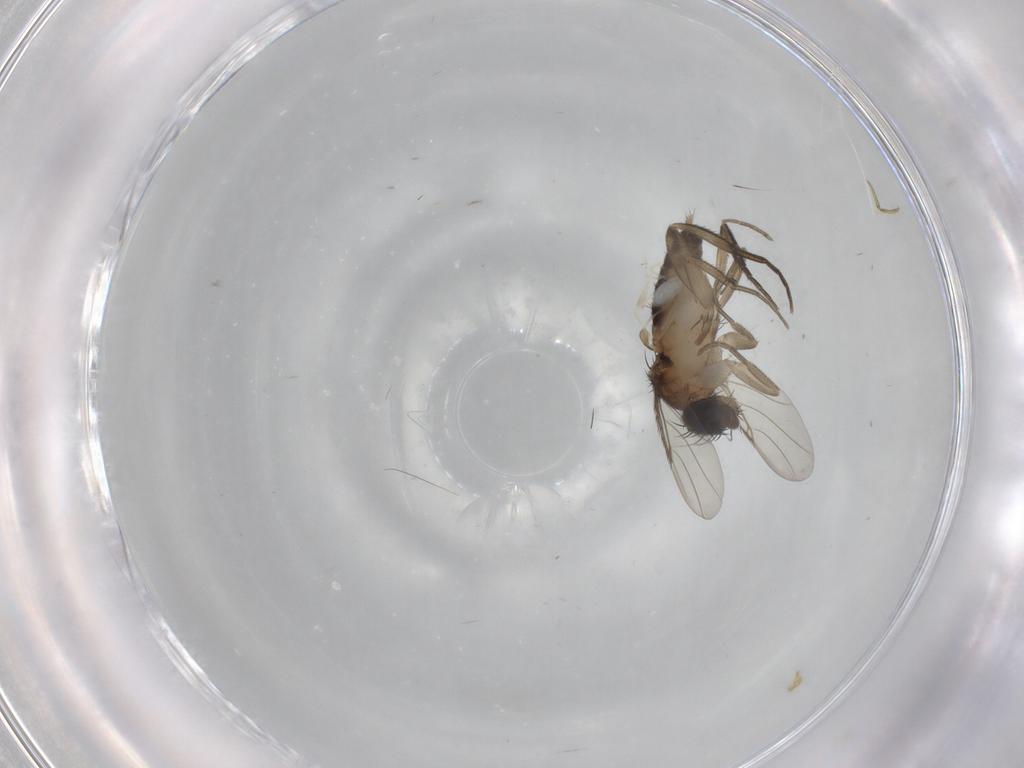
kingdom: Animalia
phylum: Arthropoda
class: Insecta
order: Diptera
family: Phoridae
